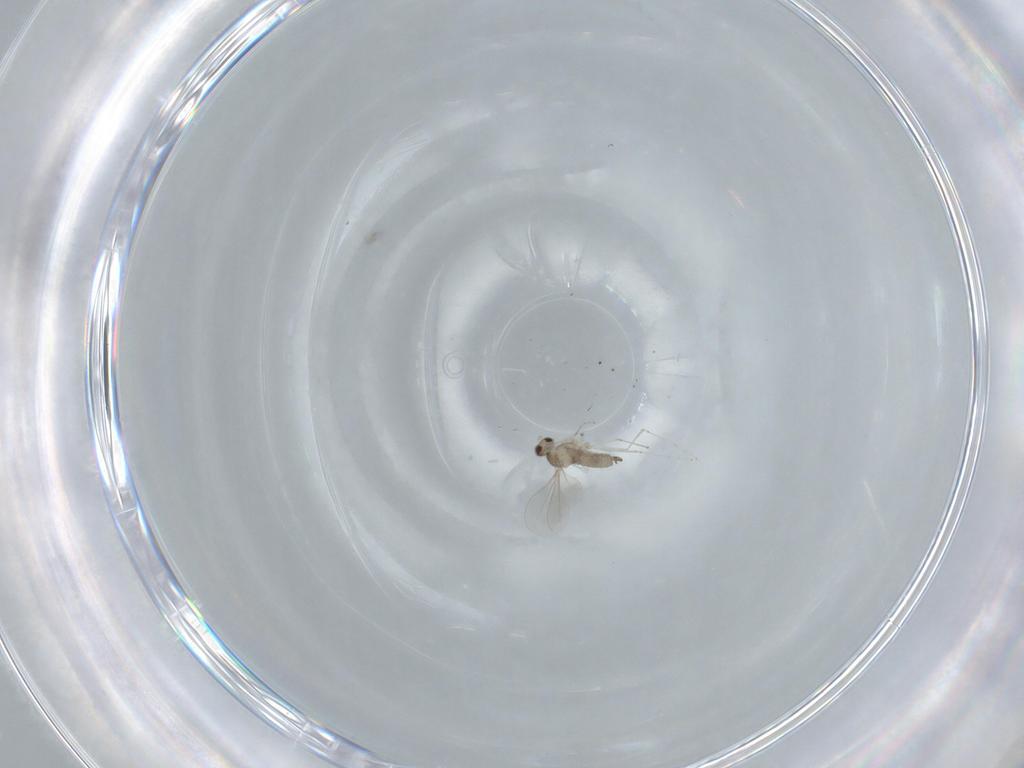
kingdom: Animalia
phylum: Arthropoda
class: Insecta
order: Diptera
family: Cecidomyiidae
